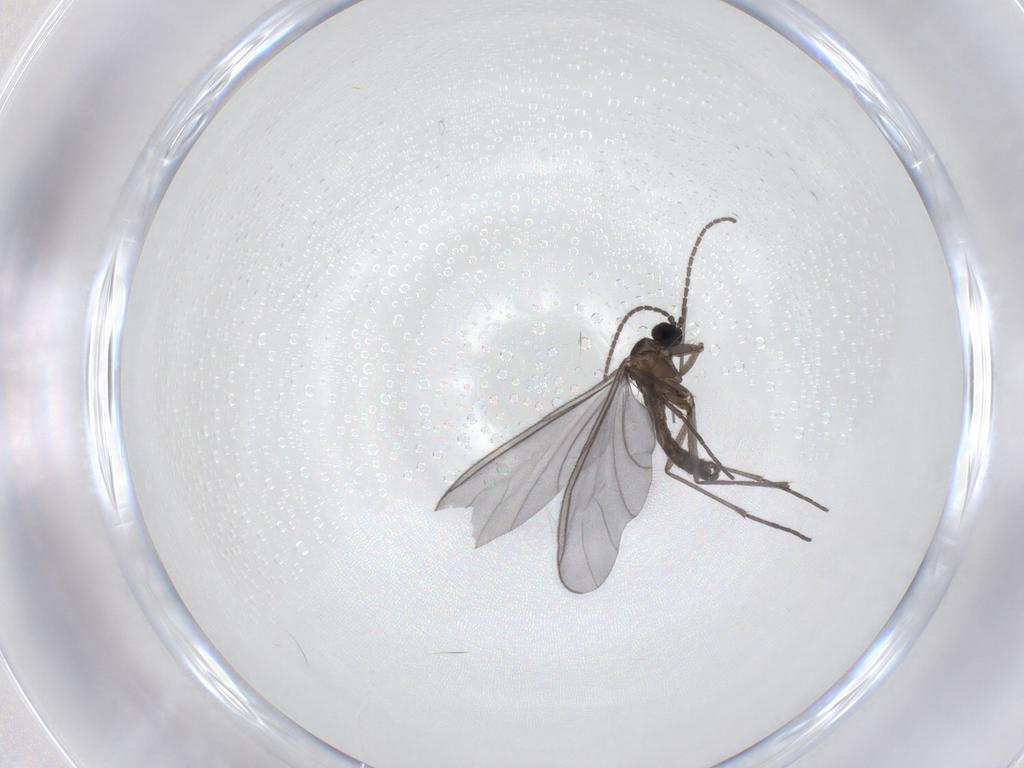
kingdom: Animalia
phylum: Arthropoda
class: Insecta
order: Diptera
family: Sciaridae
